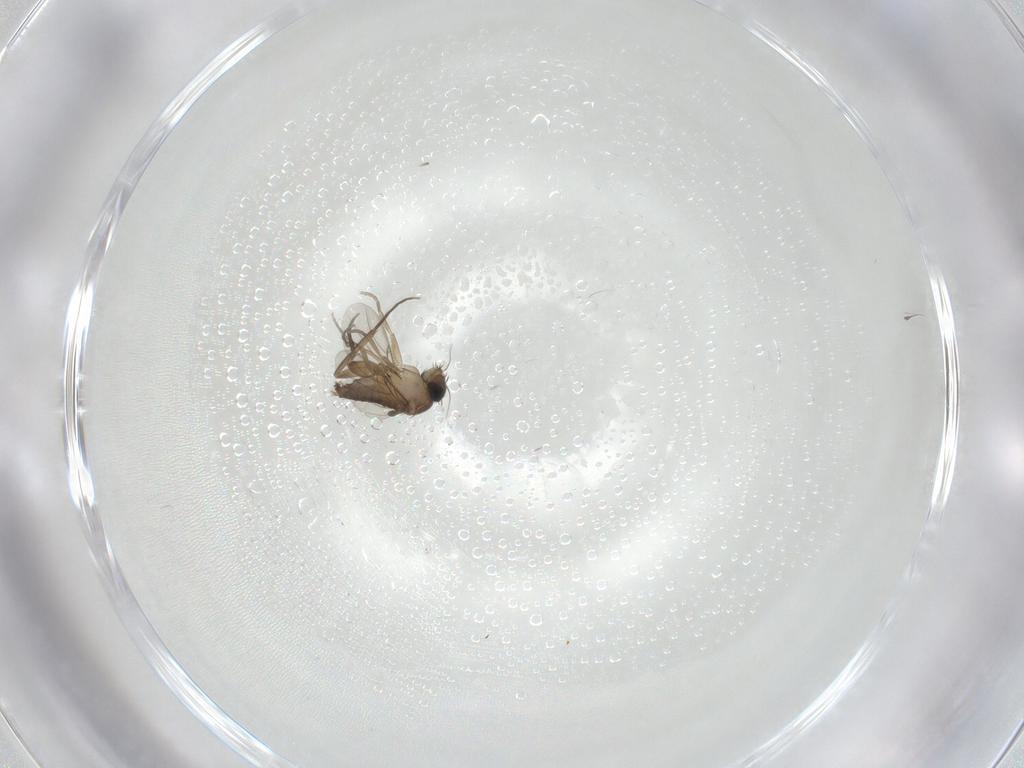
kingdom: Animalia
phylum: Arthropoda
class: Insecta
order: Diptera
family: Phoridae
